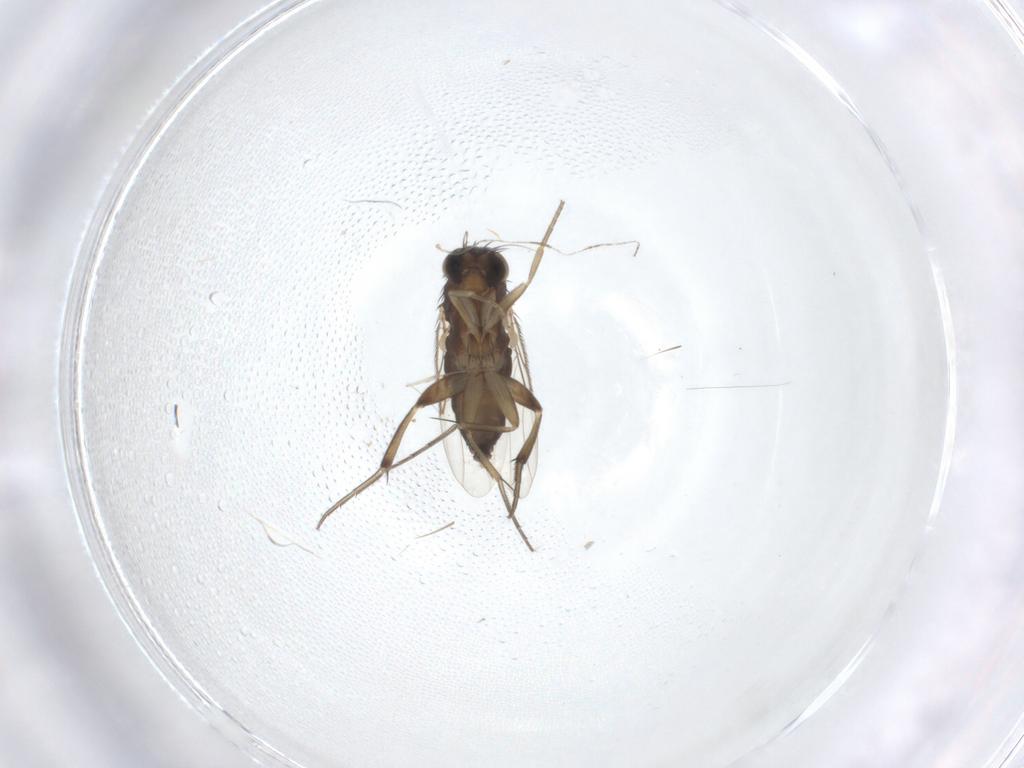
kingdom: Animalia
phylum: Arthropoda
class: Insecta
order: Diptera
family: Phoridae
